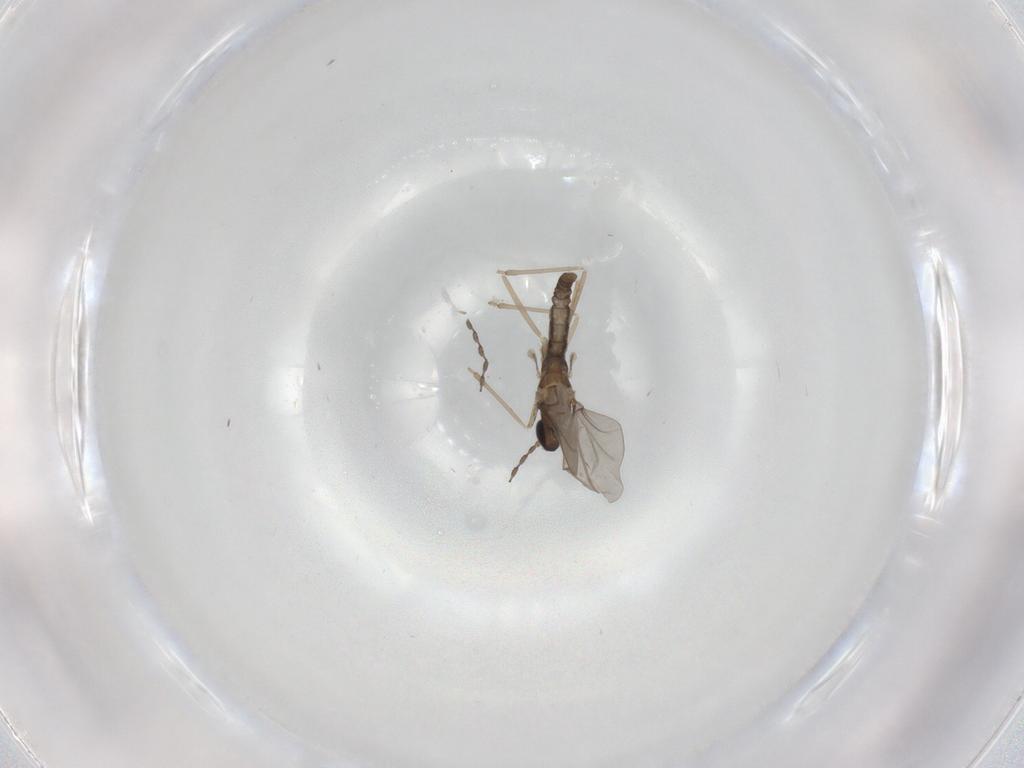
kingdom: Animalia
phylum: Arthropoda
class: Insecta
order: Diptera
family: Cecidomyiidae
